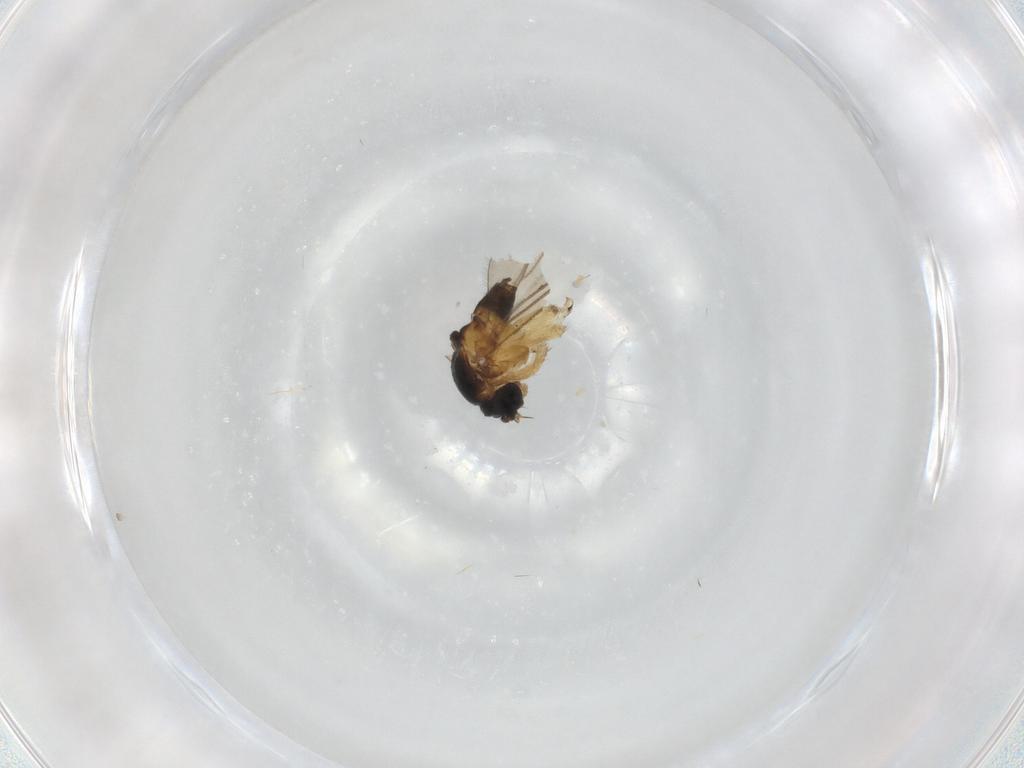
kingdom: Animalia
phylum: Arthropoda
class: Insecta
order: Diptera
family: Sciaridae
